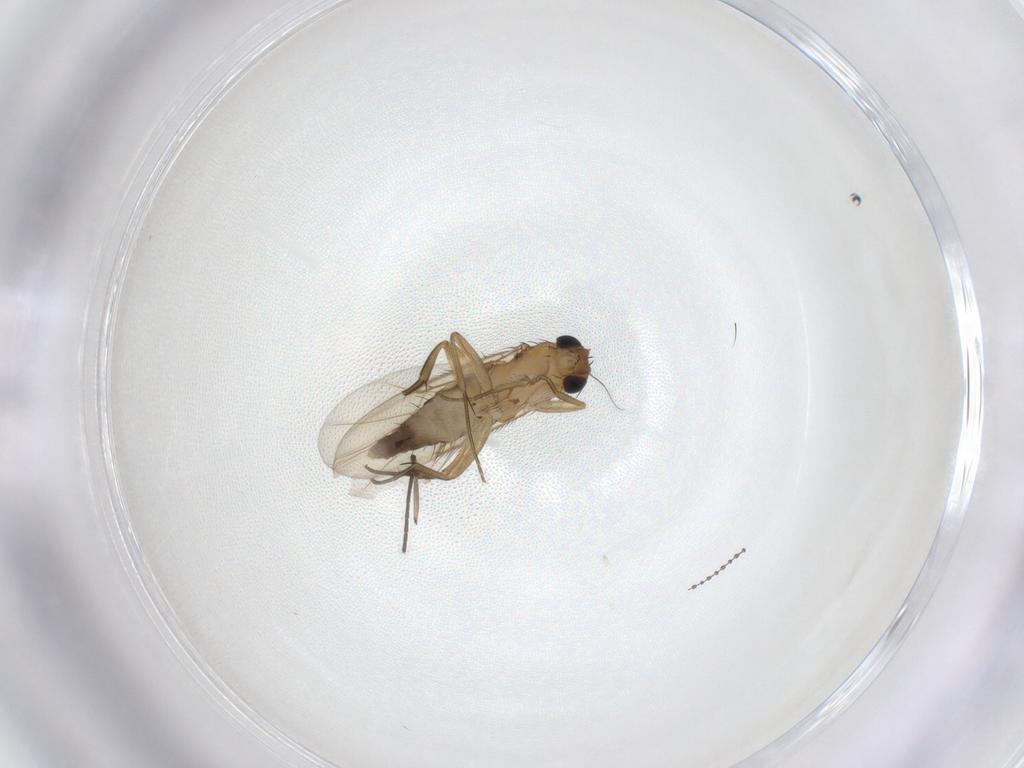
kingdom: Animalia
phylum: Arthropoda
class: Insecta
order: Diptera
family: Phoridae
